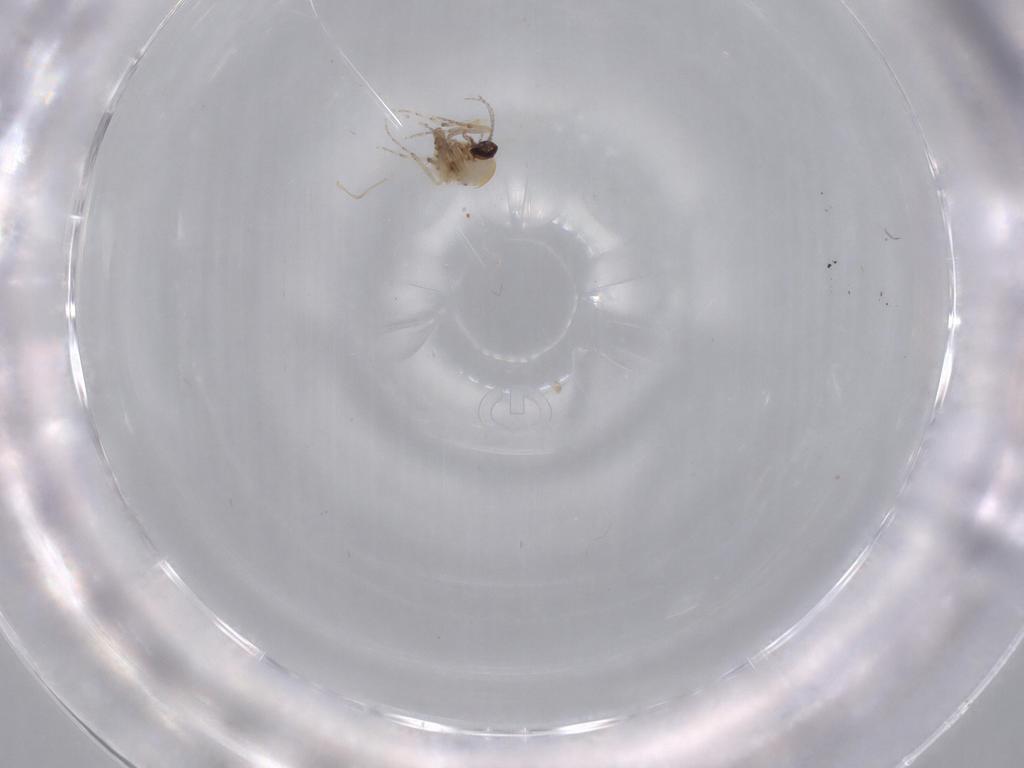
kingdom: Animalia
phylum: Arthropoda
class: Insecta
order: Diptera
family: Ceratopogonidae
